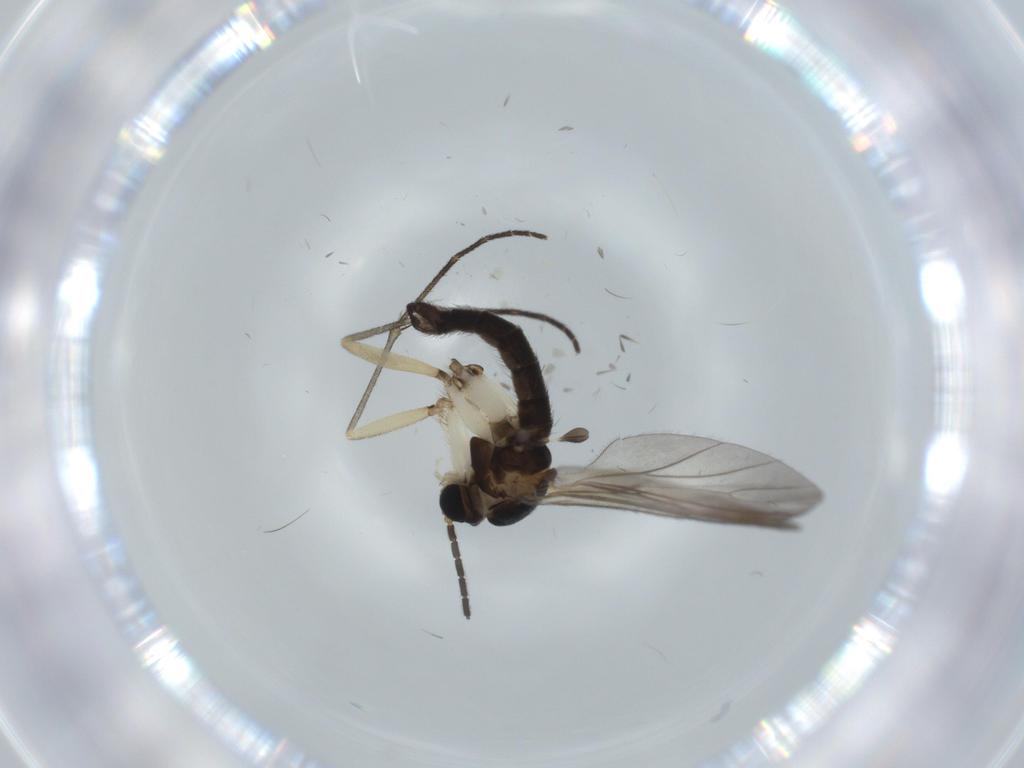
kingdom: Animalia
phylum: Arthropoda
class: Insecta
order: Diptera
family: Sciaridae
